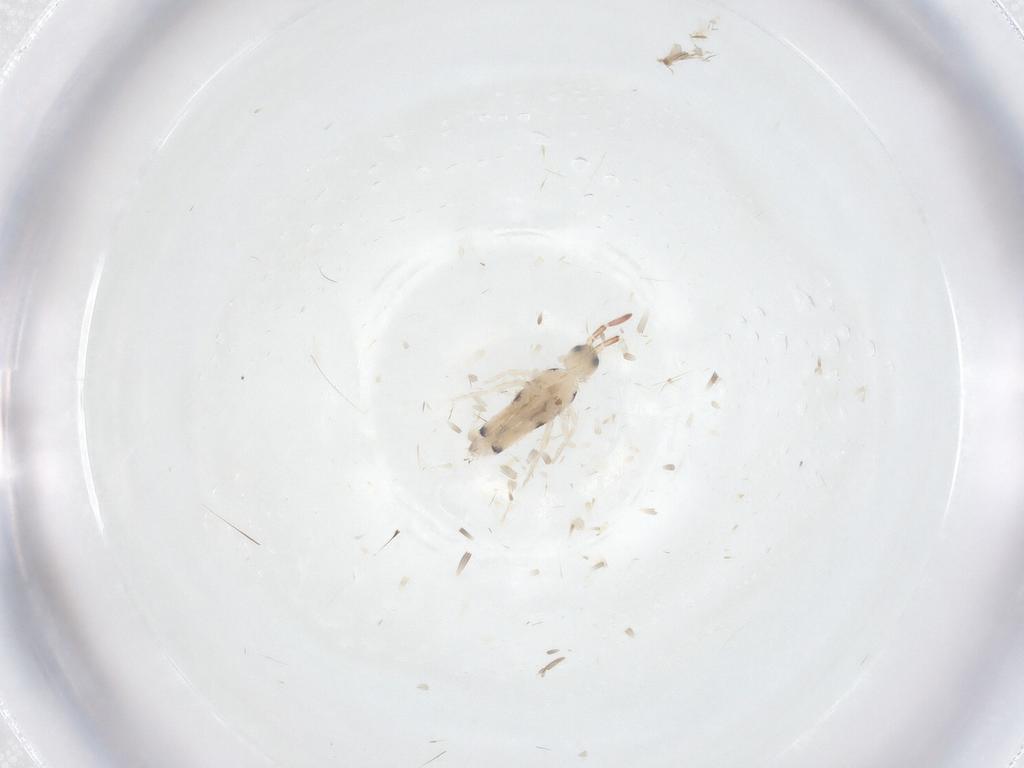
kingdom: Animalia
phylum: Arthropoda
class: Collembola
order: Entomobryomorpha
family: Entomobryidae
